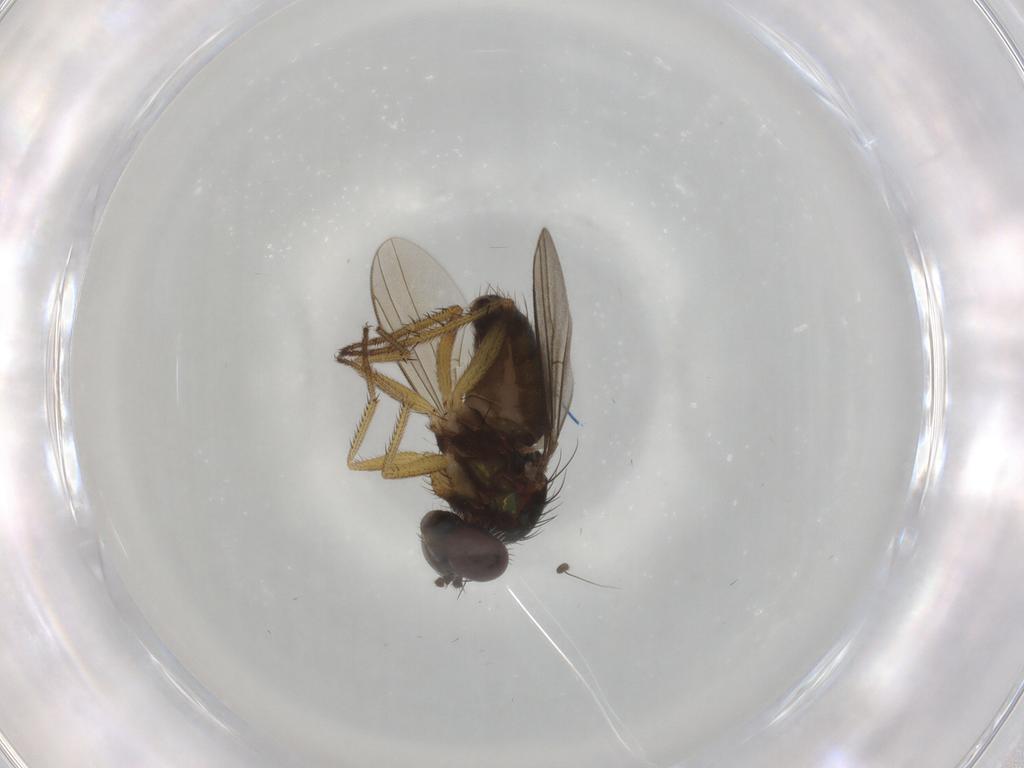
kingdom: Animalia
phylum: Arthropoda
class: Insecta
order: Diptera
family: Dolichopodidae
